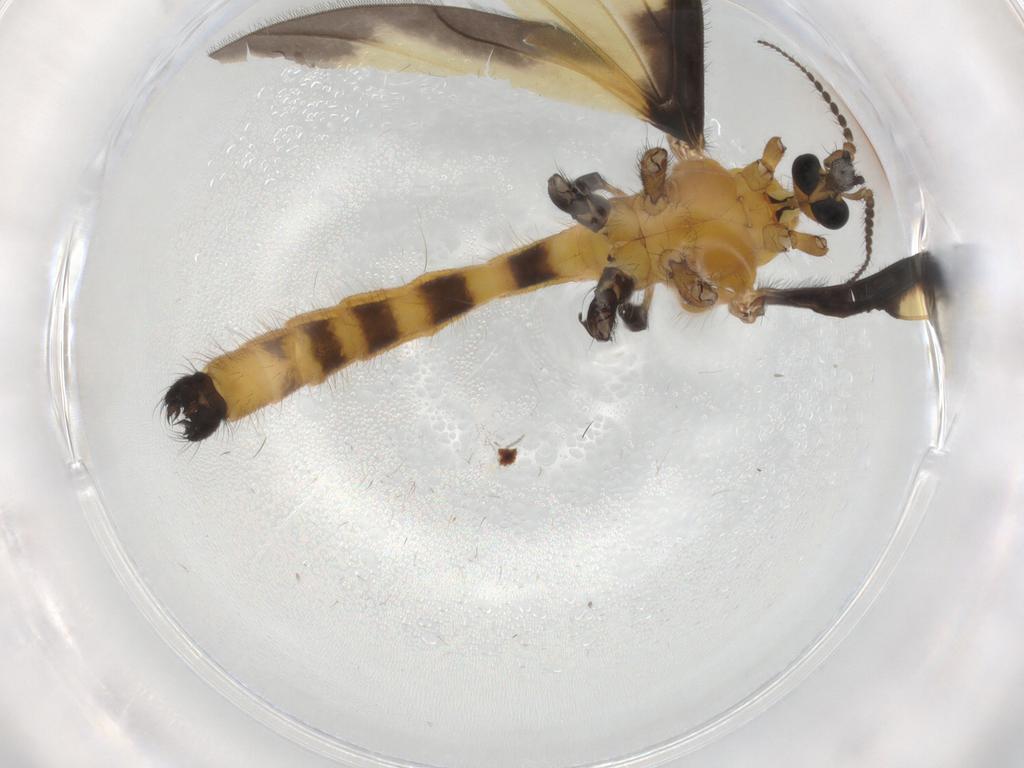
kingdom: Animalia
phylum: Arthropoda
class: Insecta
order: Diptera
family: Limoniidae
